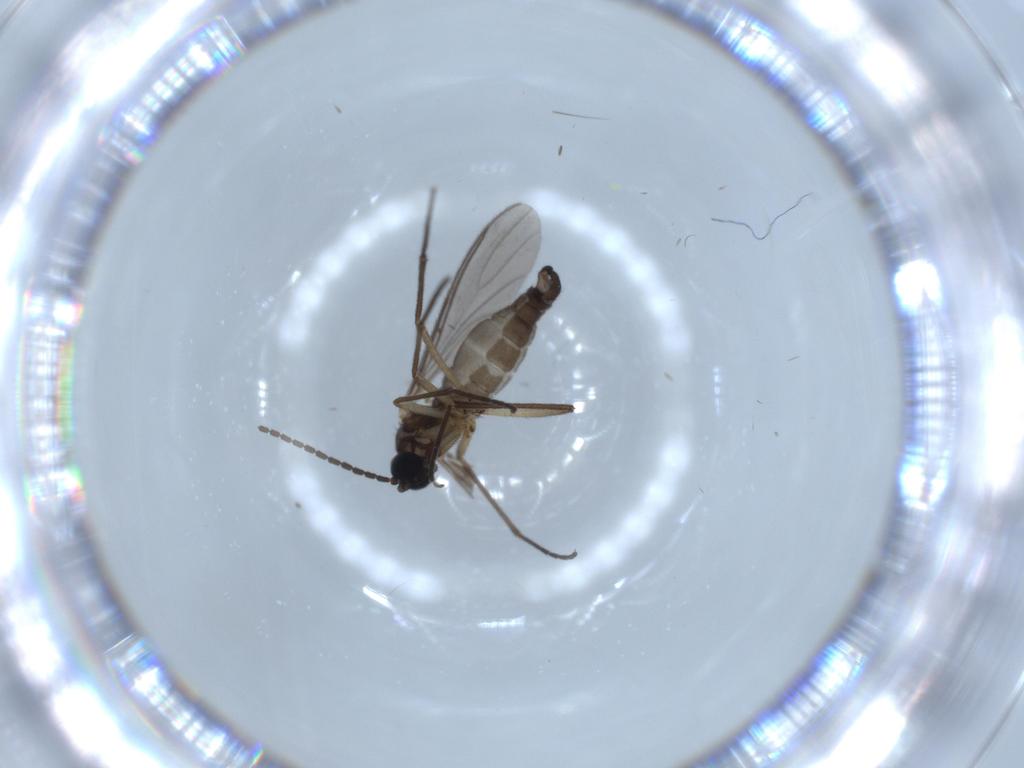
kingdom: Animalia
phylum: Arthropoda
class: Insecta
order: Diptera
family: Sciaridae
